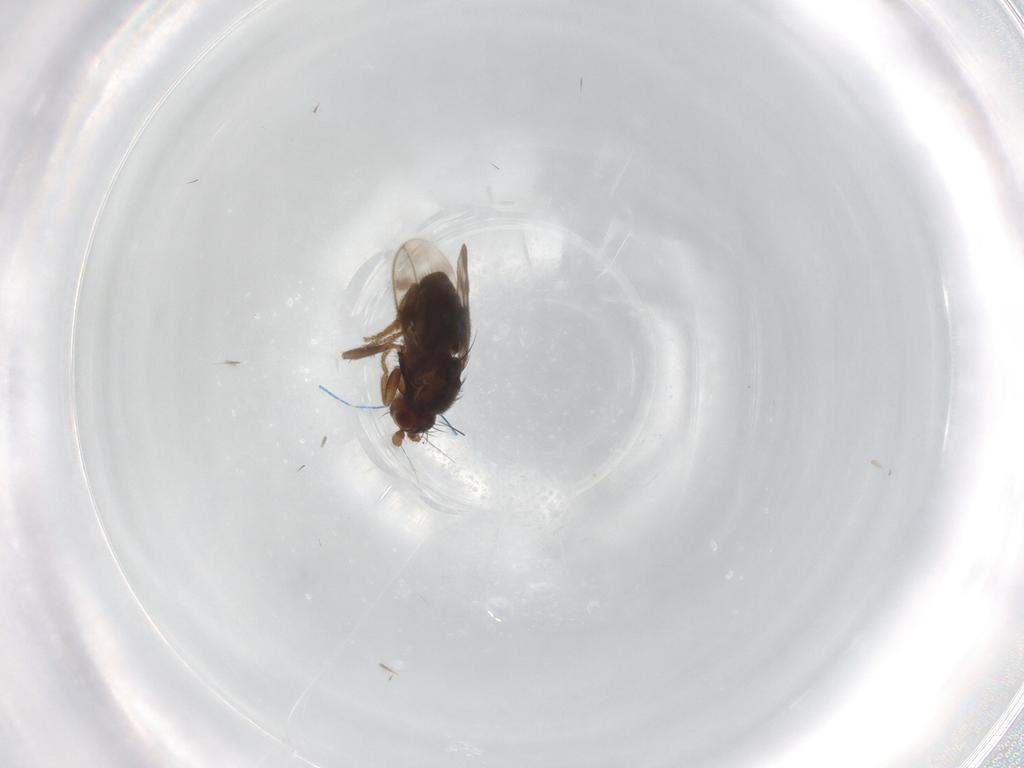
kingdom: Animalia
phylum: Arthropoda
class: Insecta
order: Diptera
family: Sphaeroceridae
